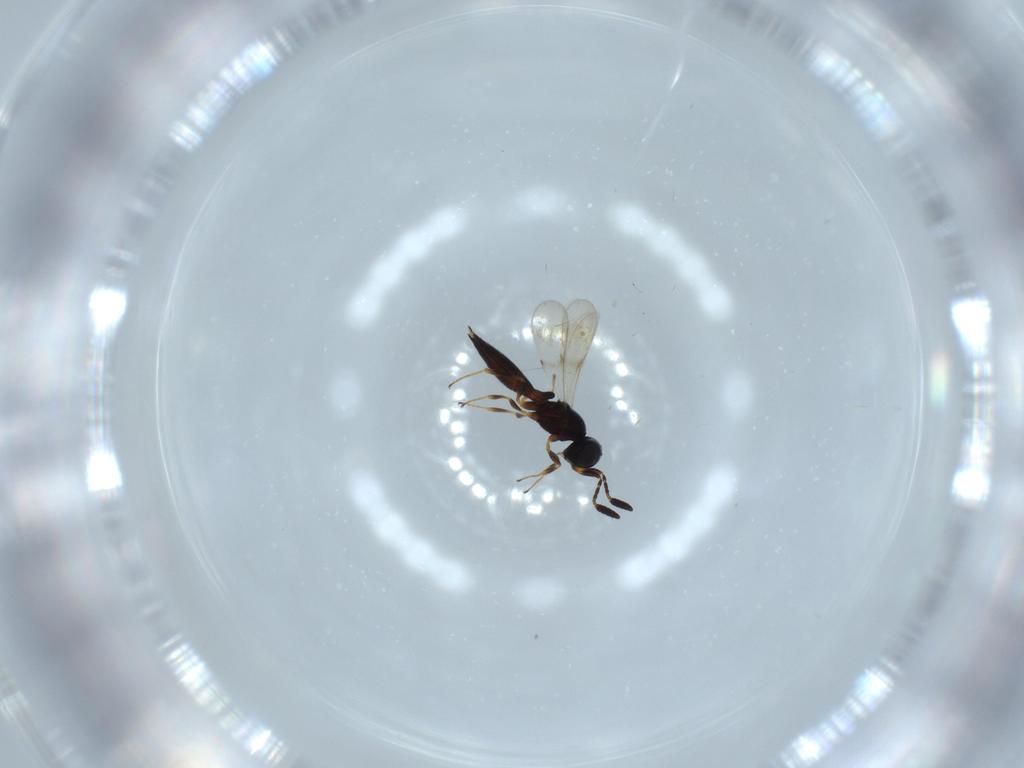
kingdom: Animalia
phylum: Arthropoda
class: Insecta
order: Hymenoptera
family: Scelionidae
